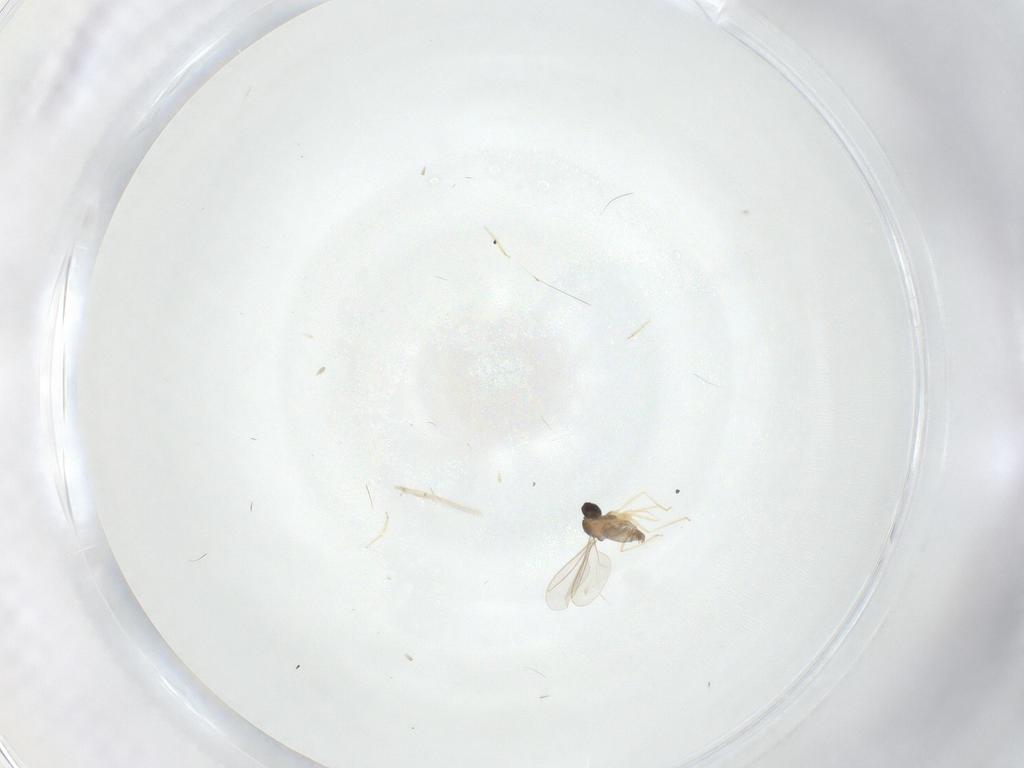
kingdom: Animalia
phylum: Arthropoda
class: Insecta
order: Diptera
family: Cecidomyiidae
